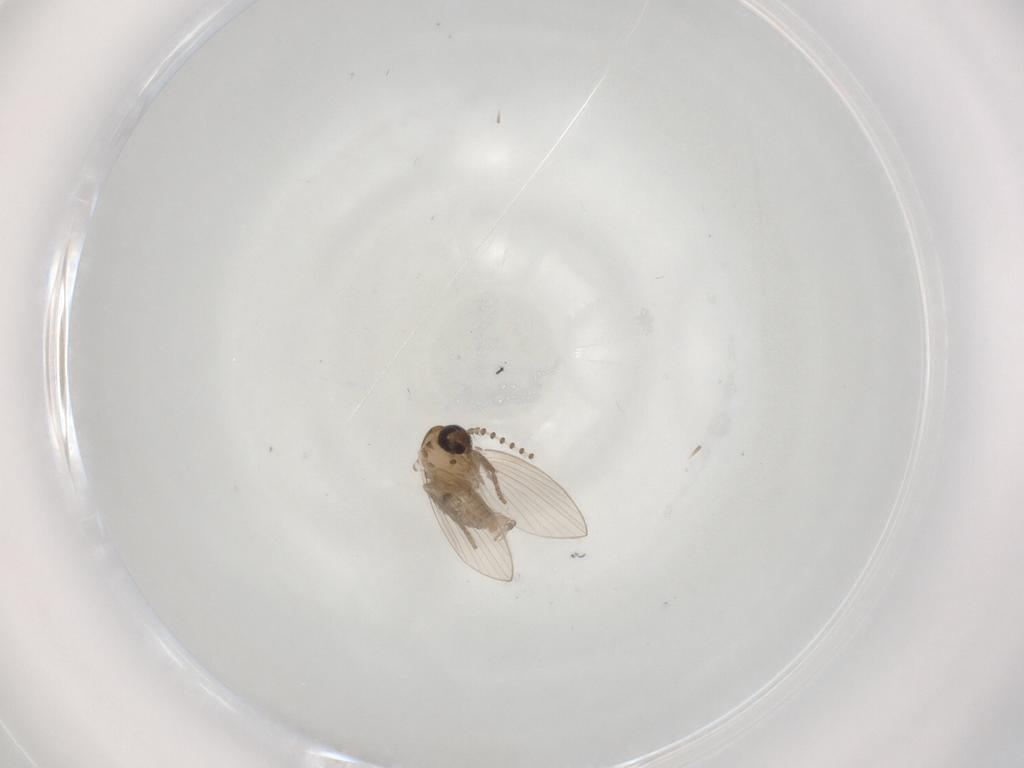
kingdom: Animalia
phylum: Arthropoda
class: Insecta
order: Diptera
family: Psychodidae
